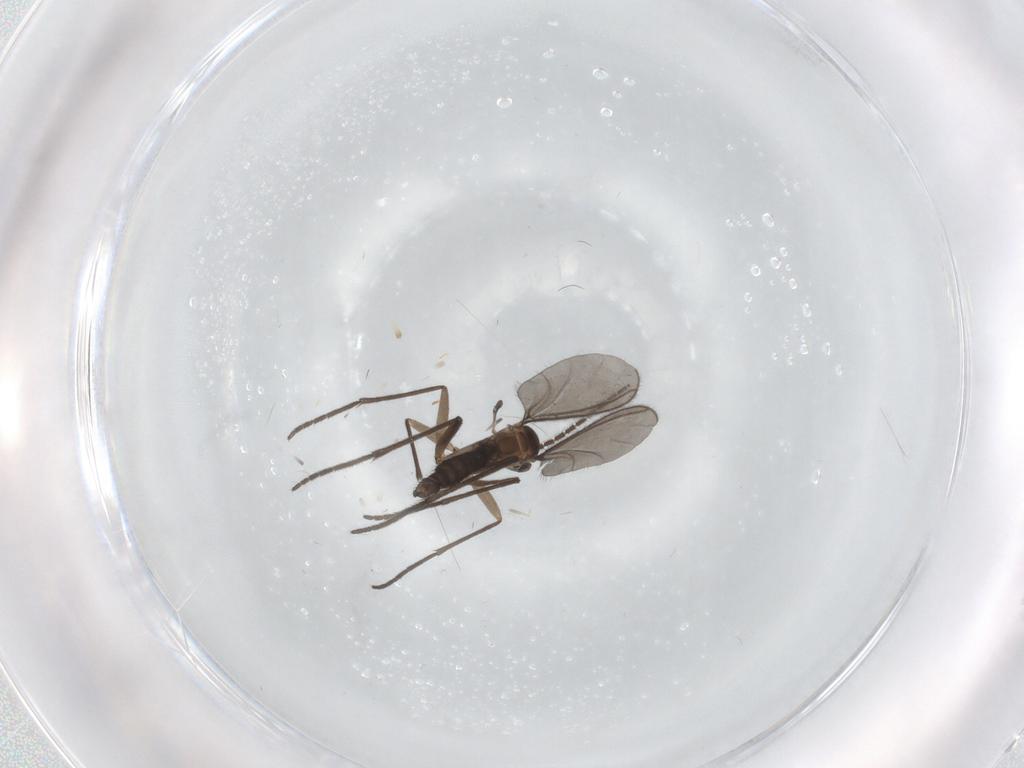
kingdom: Animalia
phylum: Arthropoda
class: Insecta
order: Diptera
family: Sciaridae
